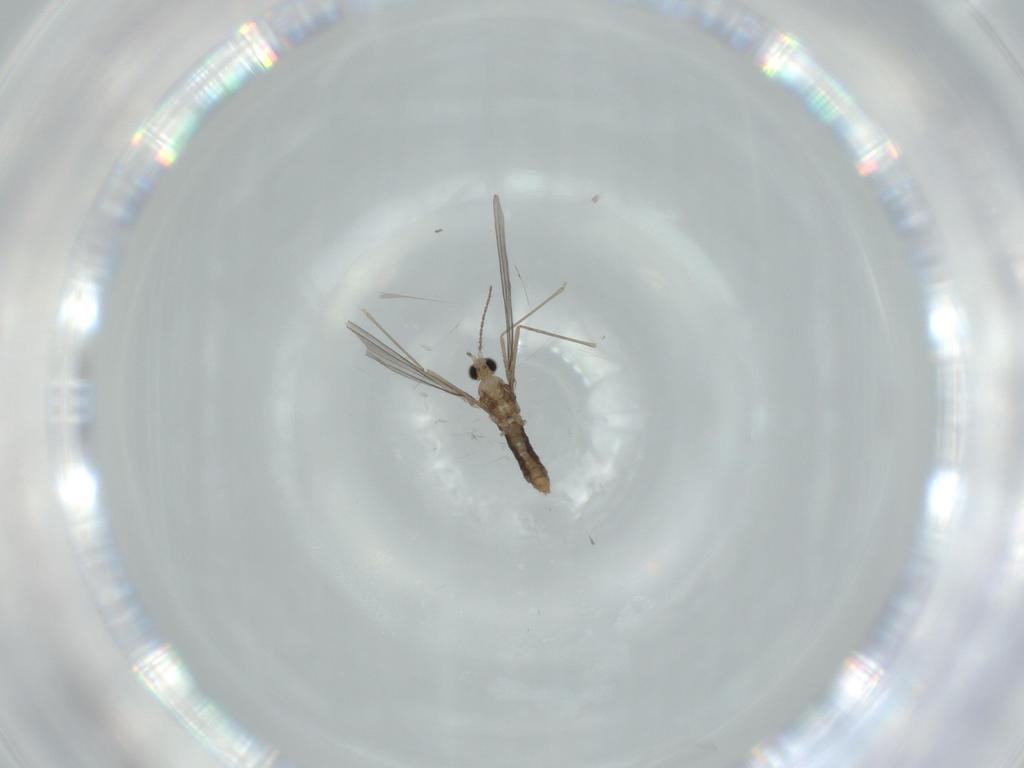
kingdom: Animalia
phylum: Arthropoda
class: Insecta
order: Diptera
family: Cecidomyiidae
